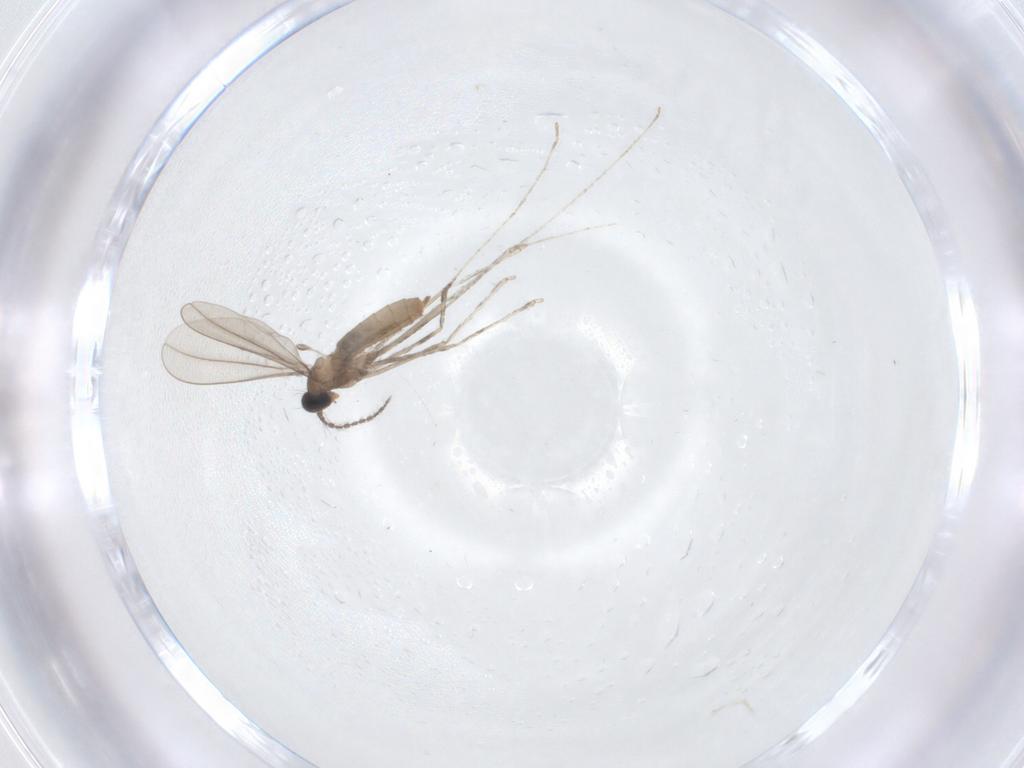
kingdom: Animalia
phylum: Arthropoda
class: Insecta
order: Diptera
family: Cecidomyiidae
